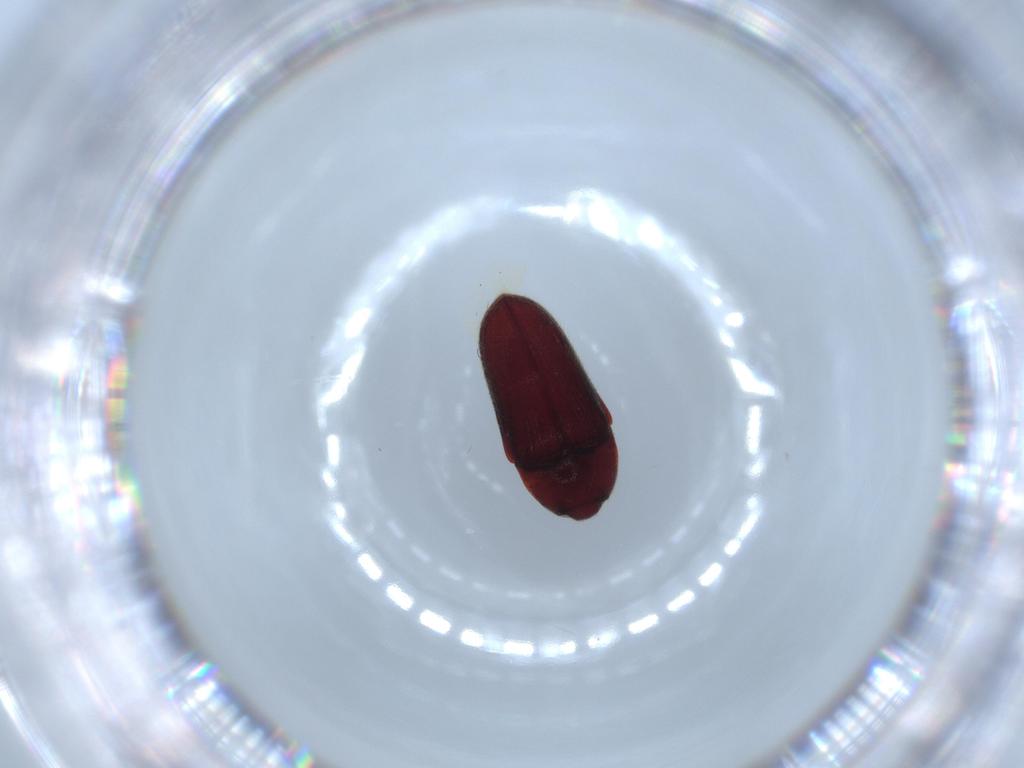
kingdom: Animalia
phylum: Arthropoda
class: Insecta
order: Coleoptera
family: Throscidae
